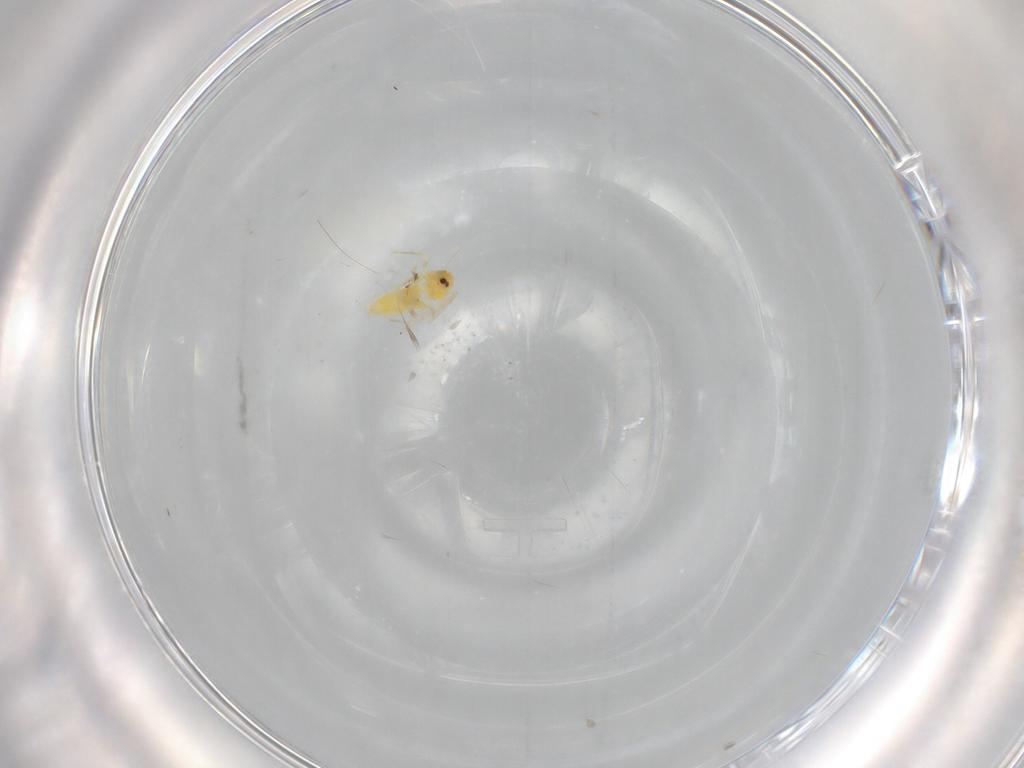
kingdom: Animalia
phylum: Arthropoda
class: Insecta
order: Hemiptera
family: Aleyrodidae
